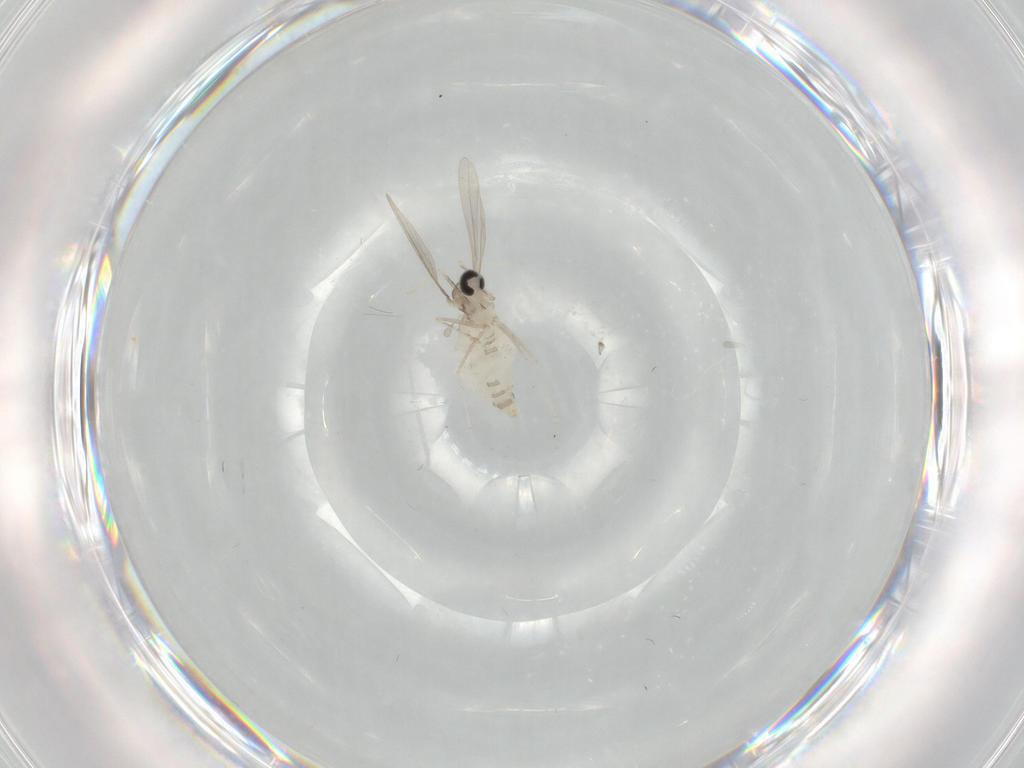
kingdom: Animalia
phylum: Arthropoda
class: Insecta
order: Diptera
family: Cecidomyiidae
